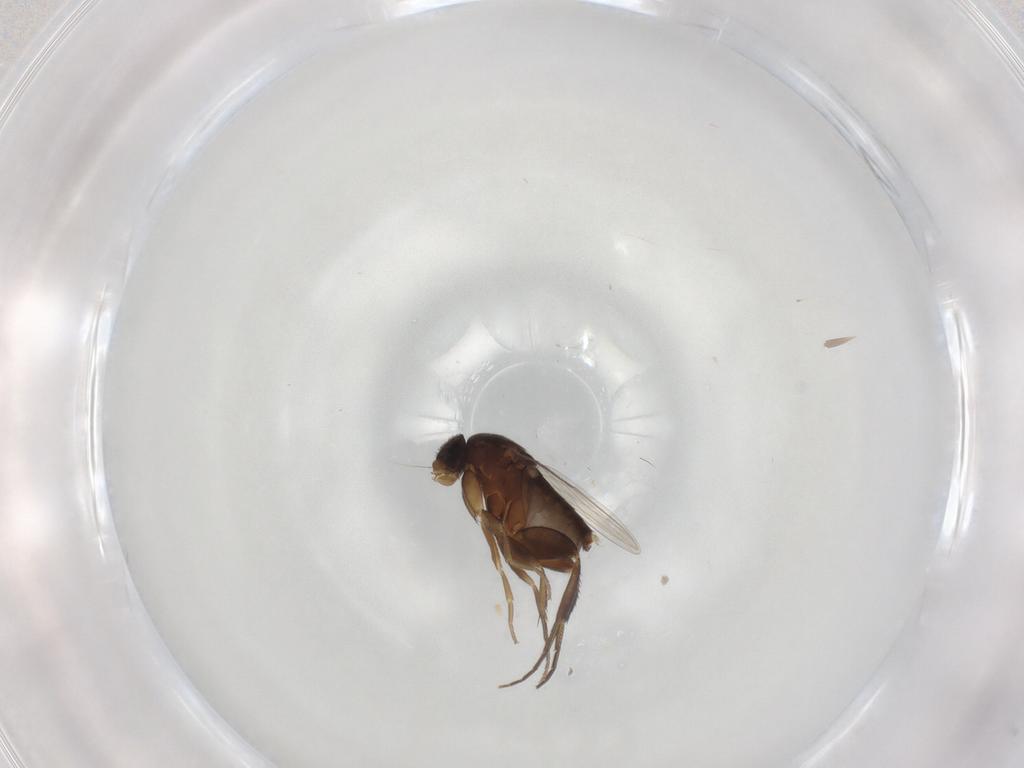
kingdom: Animalia
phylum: Arthropoda
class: Insecta
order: Diptera
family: Phoridae
